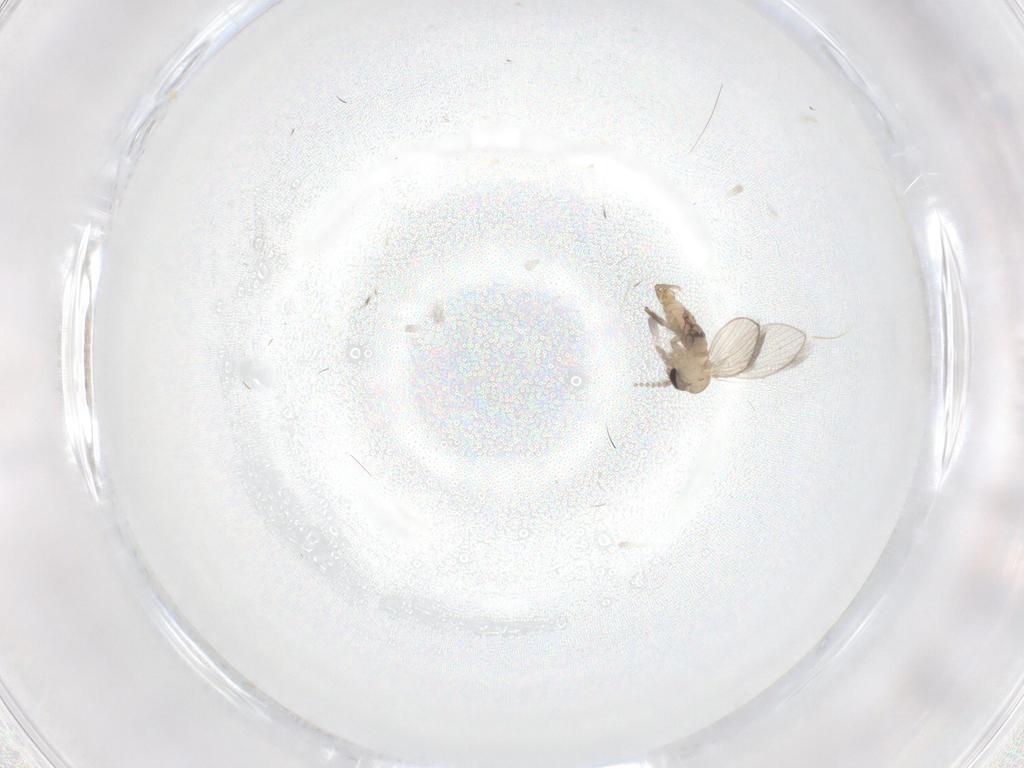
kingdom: Animalia
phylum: Arthropoda
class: Insecta
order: Diptera
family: Psychodidae
